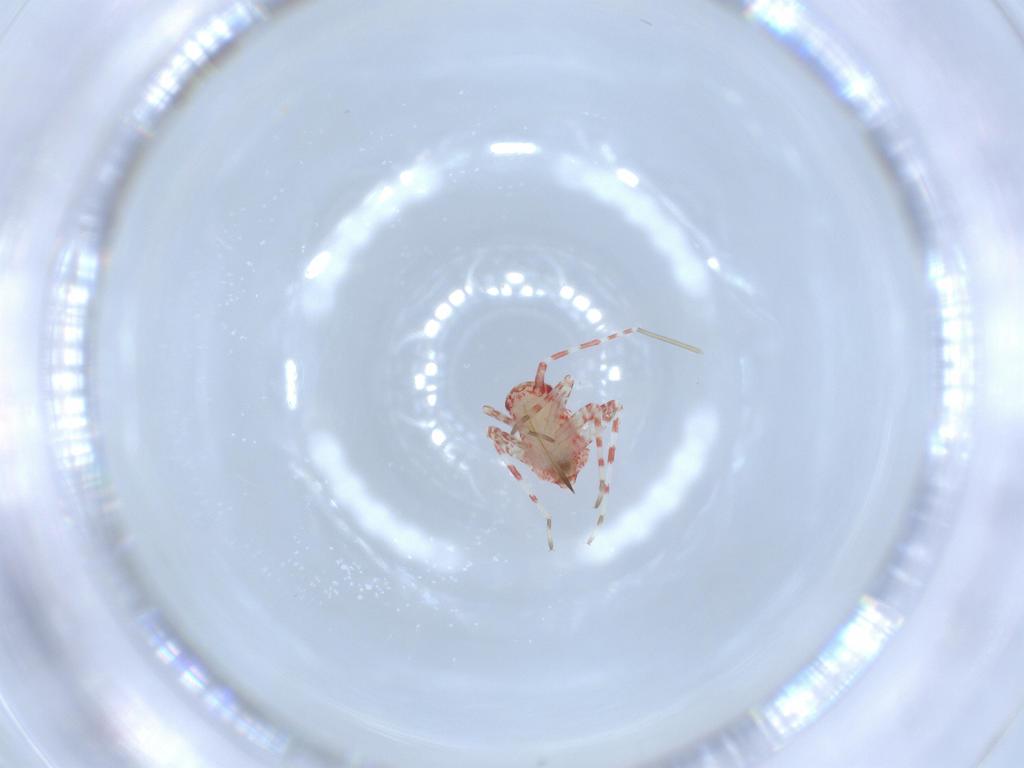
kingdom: Animalia
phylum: Arthropoda
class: Insecta
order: Hemiptera
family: Miridae
